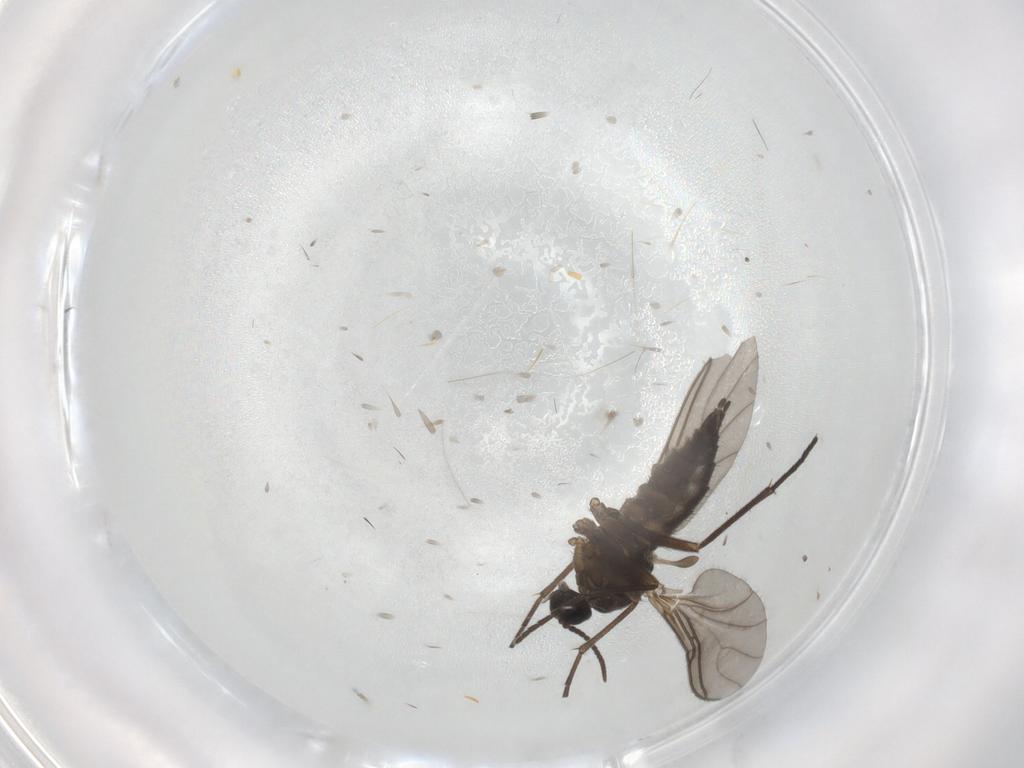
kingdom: Animalia
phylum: Arthropoda
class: Insecta
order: Diptera
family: Sciaridae
